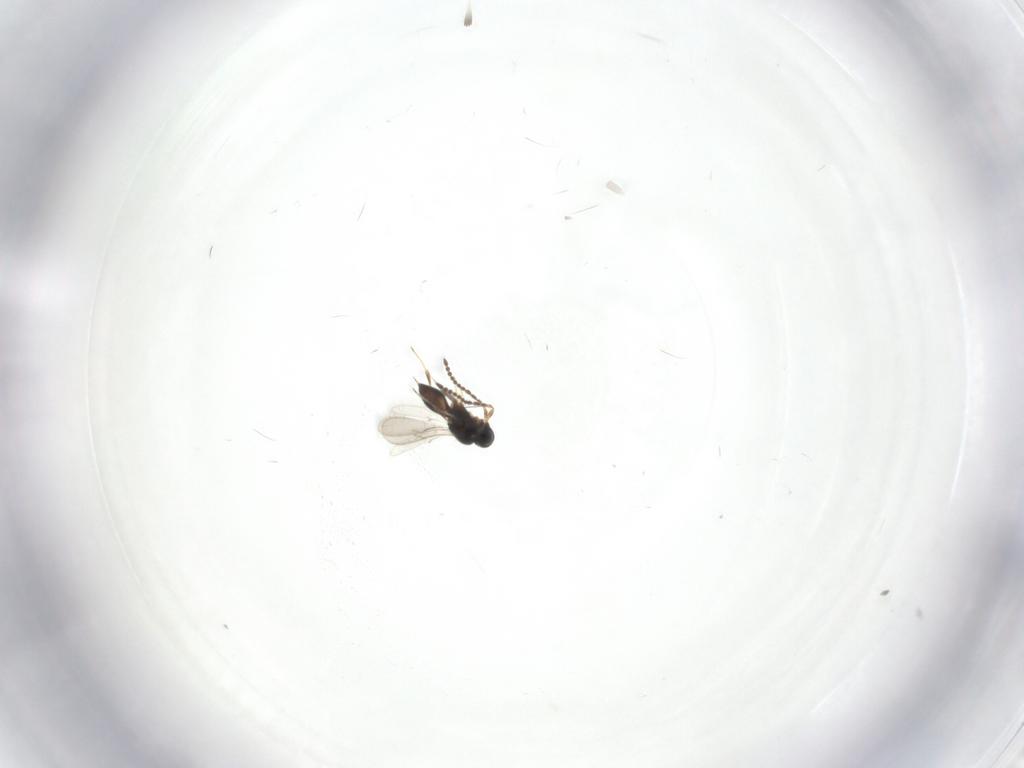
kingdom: Animalia
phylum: Arthropoda
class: Insecta
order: Hymenoptera
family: Scelionidae
